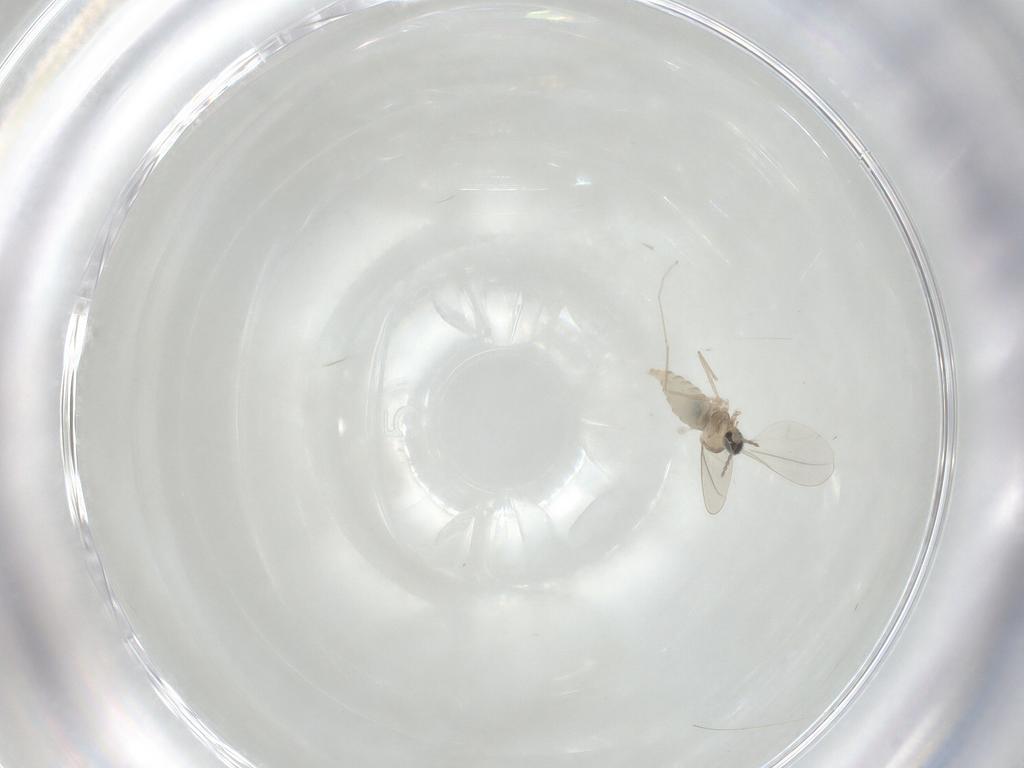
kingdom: Animalia
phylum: Arthropoda
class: Insecta
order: Diptera
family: Cecidomyiidae
